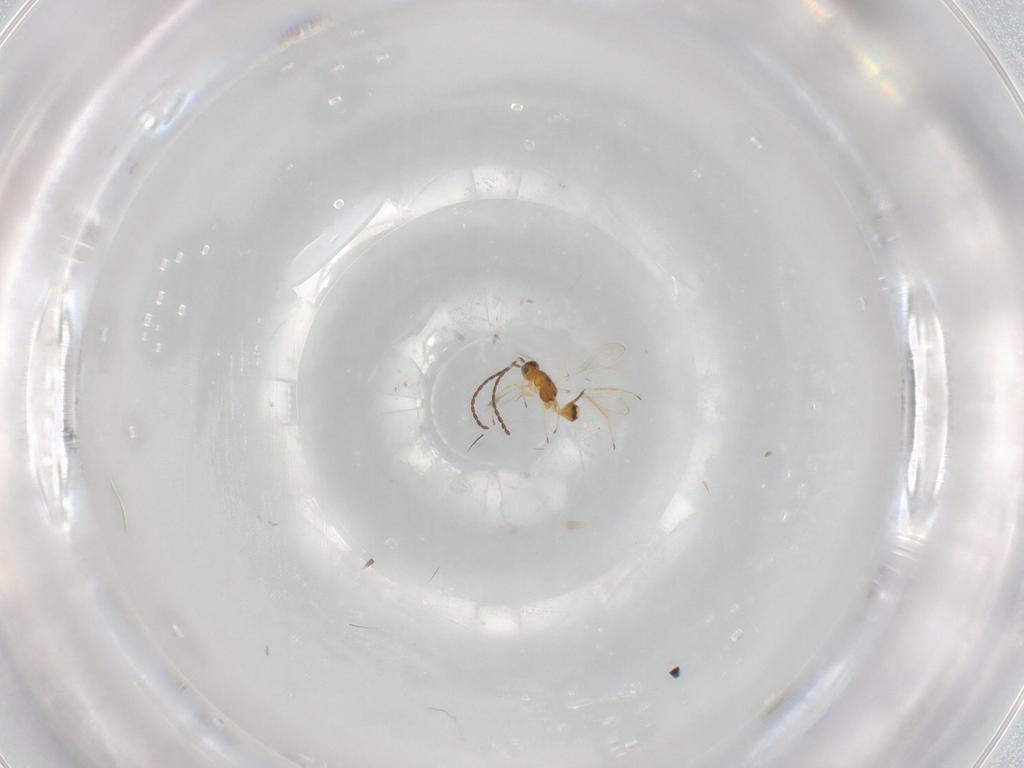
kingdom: Animalia
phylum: Arthropoda
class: Insecta
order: Hymenoptera
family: Mymaridae
